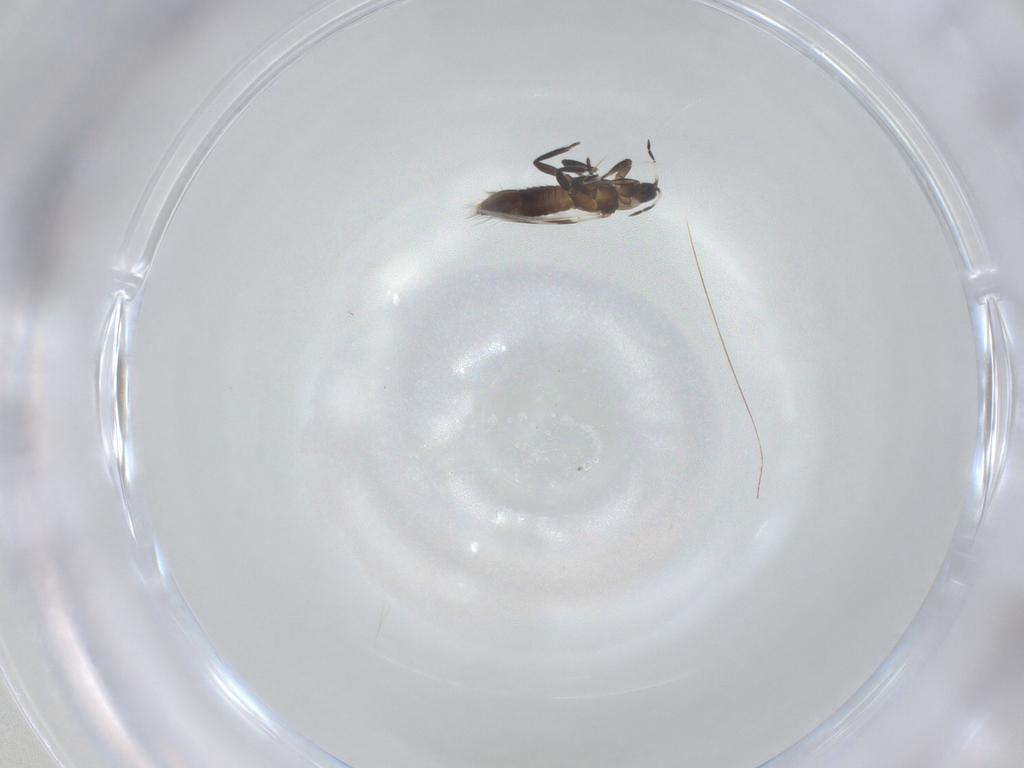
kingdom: Animalia
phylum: Arthropoda
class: Insecta
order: Thysanoptera
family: Aeolothripidae
